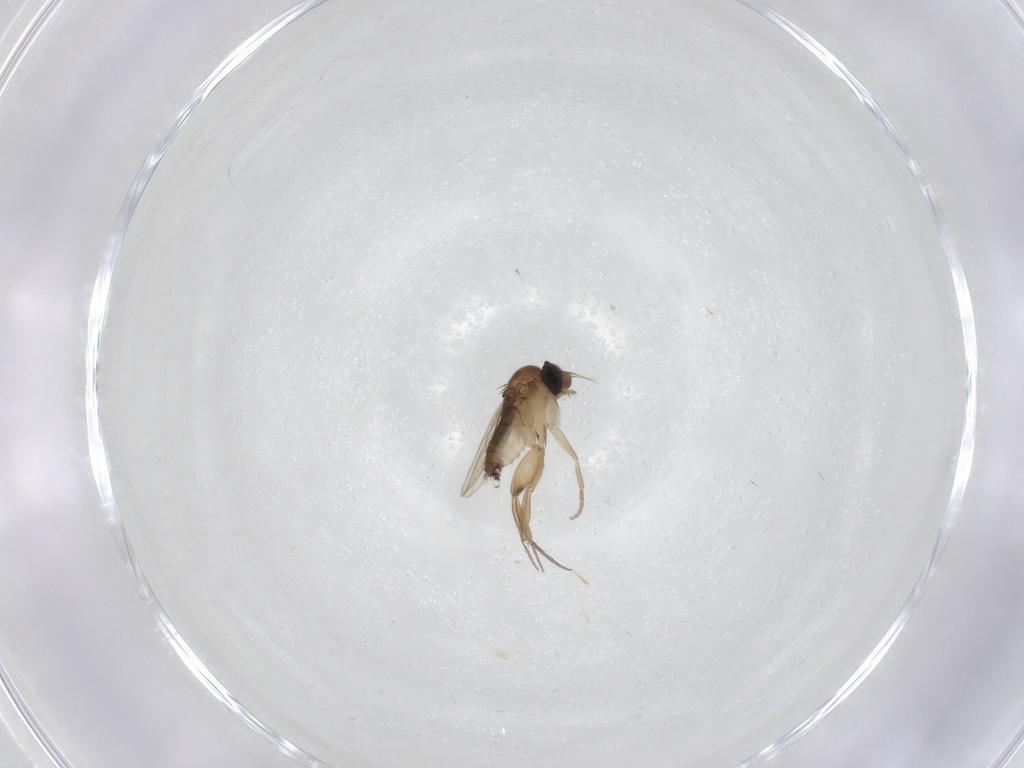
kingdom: Animalia
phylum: Arthropoda
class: Insecta
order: Diptera
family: Phoridae
